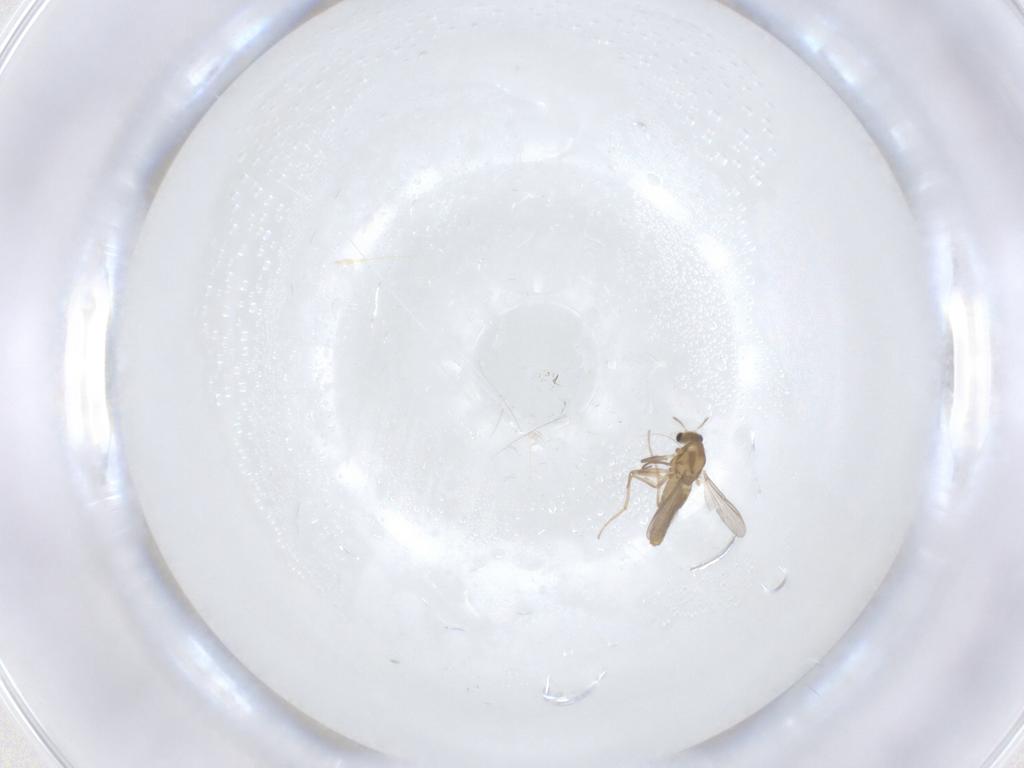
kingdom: Animalia
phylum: Arthropoda
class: Insecta
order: Diptera
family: Chironomidae
